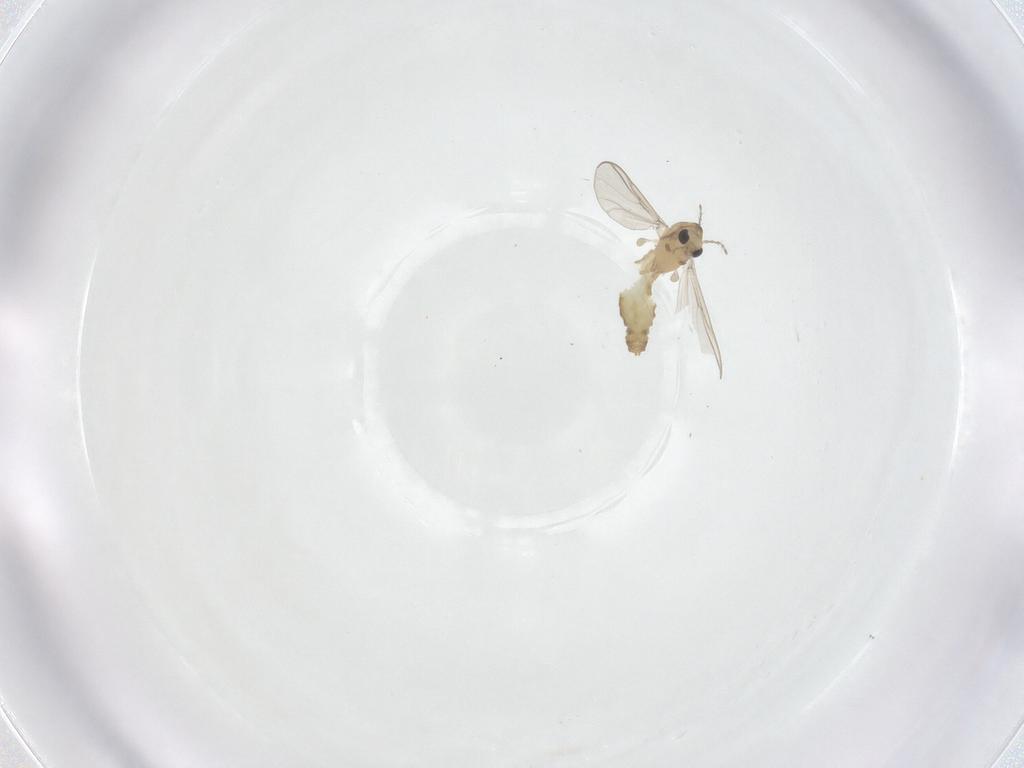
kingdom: Animalia
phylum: Arthropoda
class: Insecta
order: Diptera
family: Chironomidae
